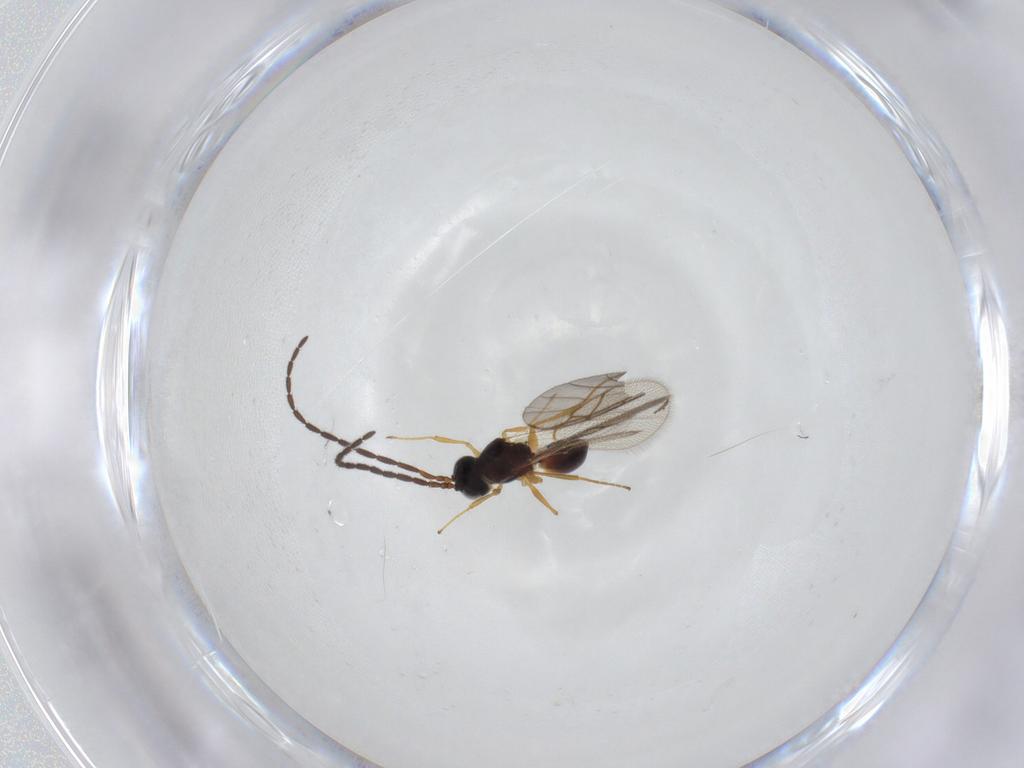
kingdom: Animalia
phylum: Arthropoda
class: Insecta
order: Hymenoptera
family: Figitidae
